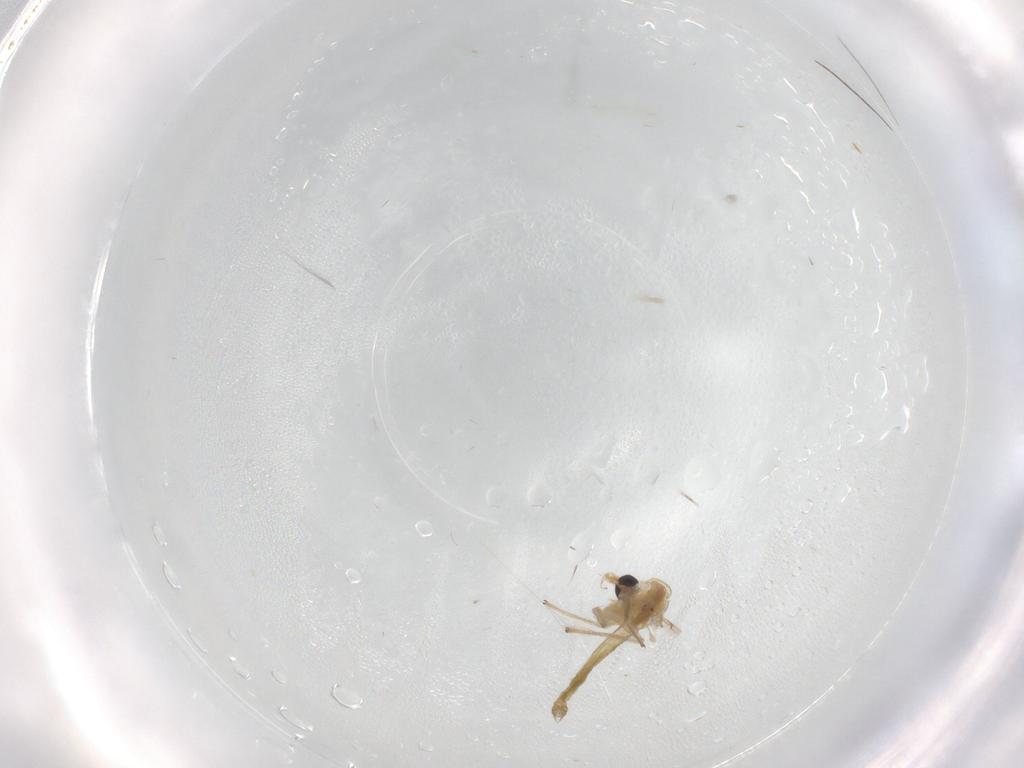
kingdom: Animalia
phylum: Arthropoda
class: Insecta
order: Diptera
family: Chironomidae
